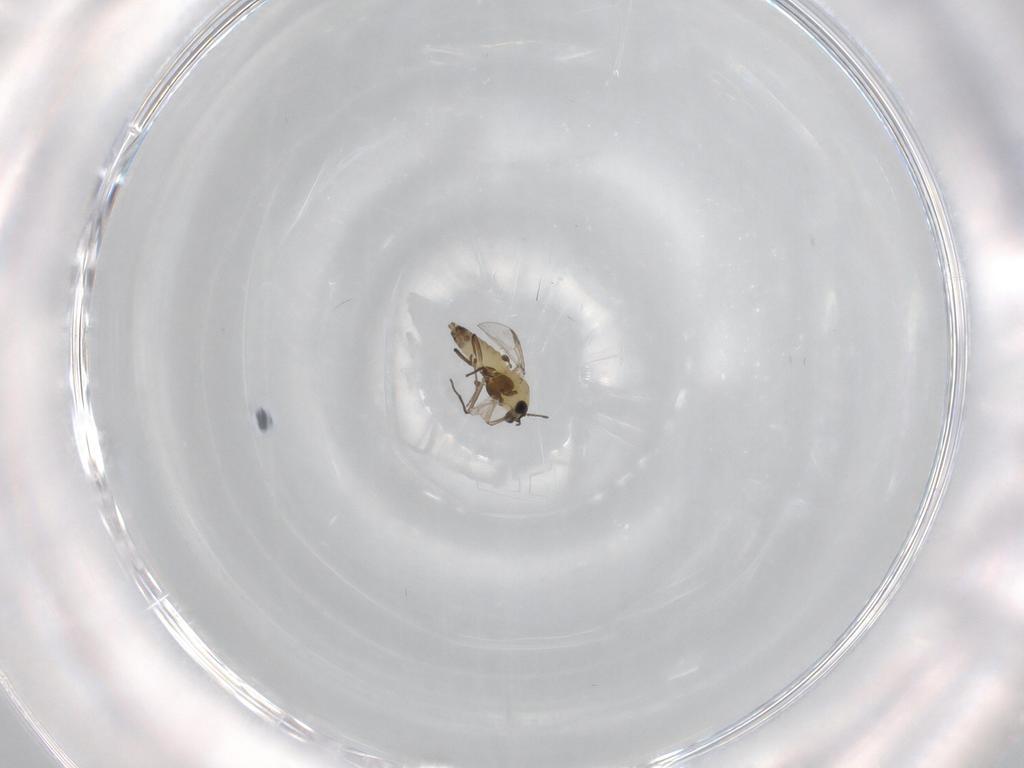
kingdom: Animalia
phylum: Arthropoda
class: Insecta
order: Diptera
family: Chironomidae
